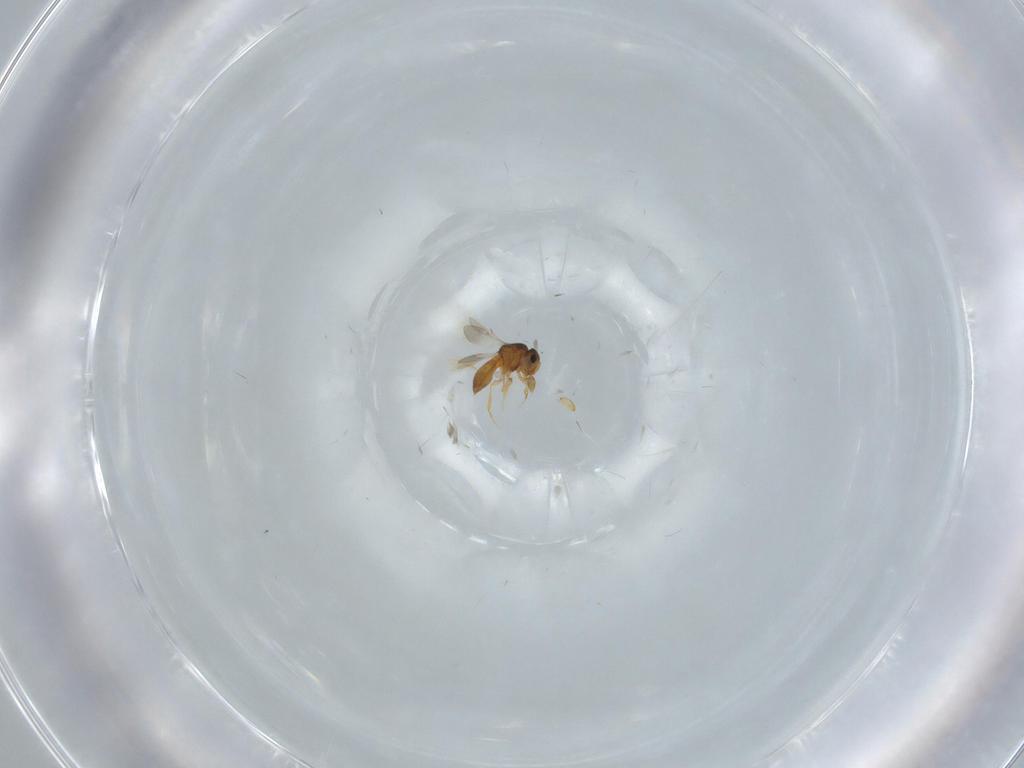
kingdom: Animalia
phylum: Arthropoda
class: Insecta
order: Hymenoptera
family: Scelionidae
